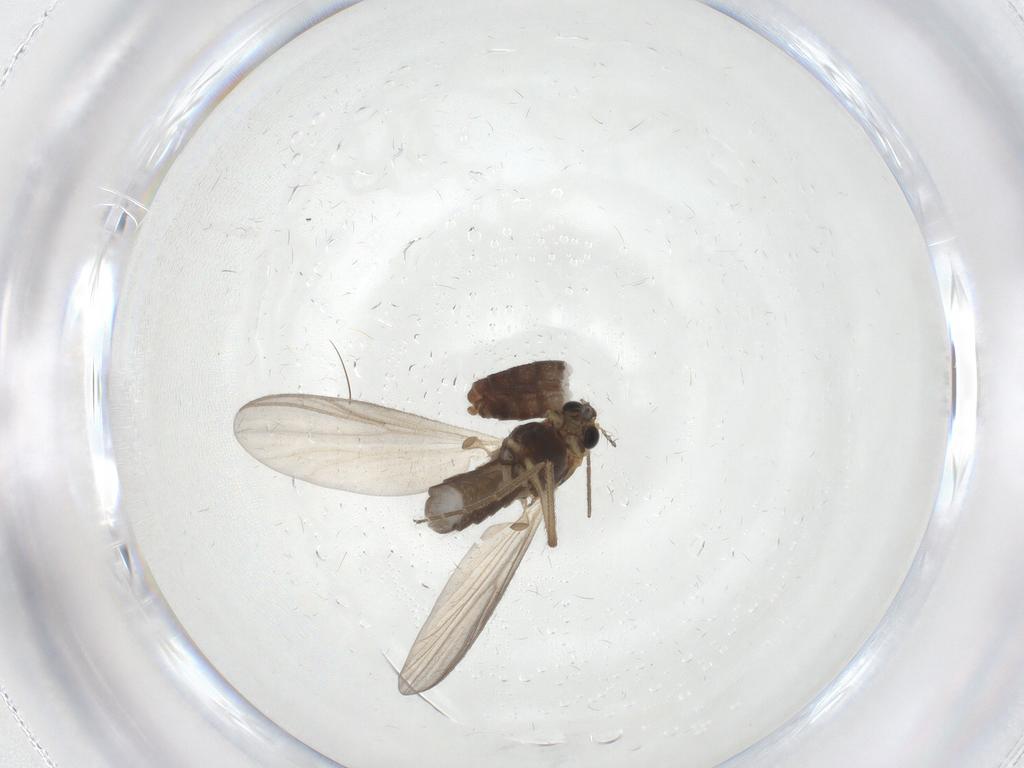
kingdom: Animalia
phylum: Arthropoda
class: Insecta
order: Diptera
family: Chironomidae
